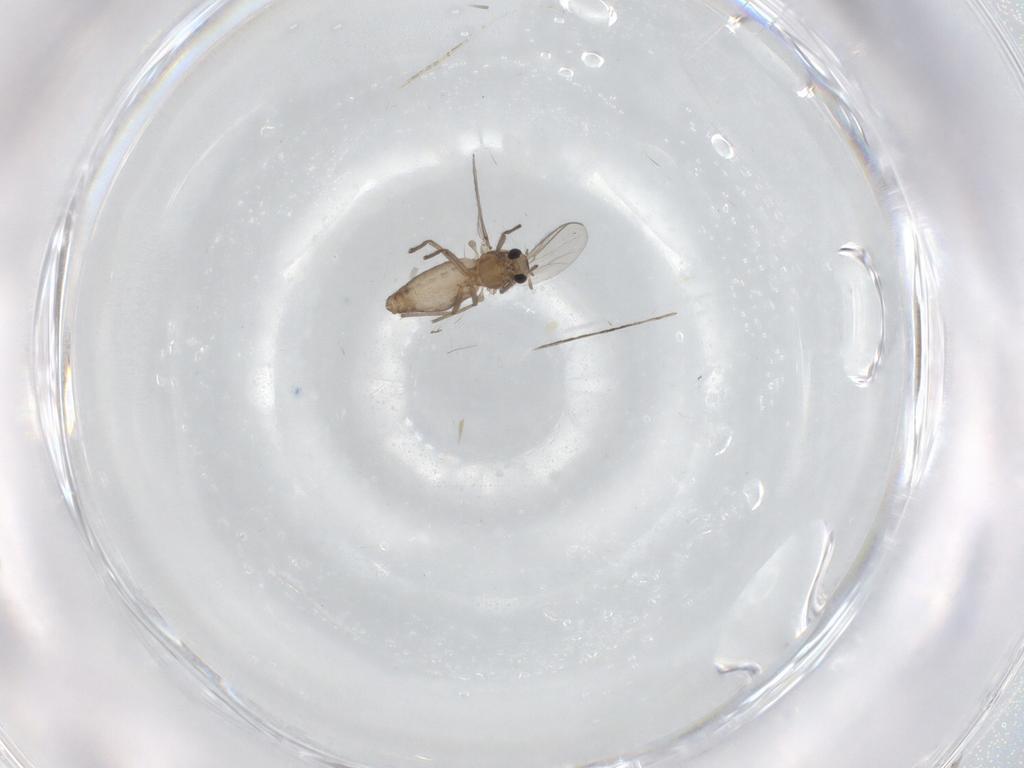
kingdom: Animalia
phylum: Arthropoda
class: Insecta
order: Diptera
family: Chironomidae
